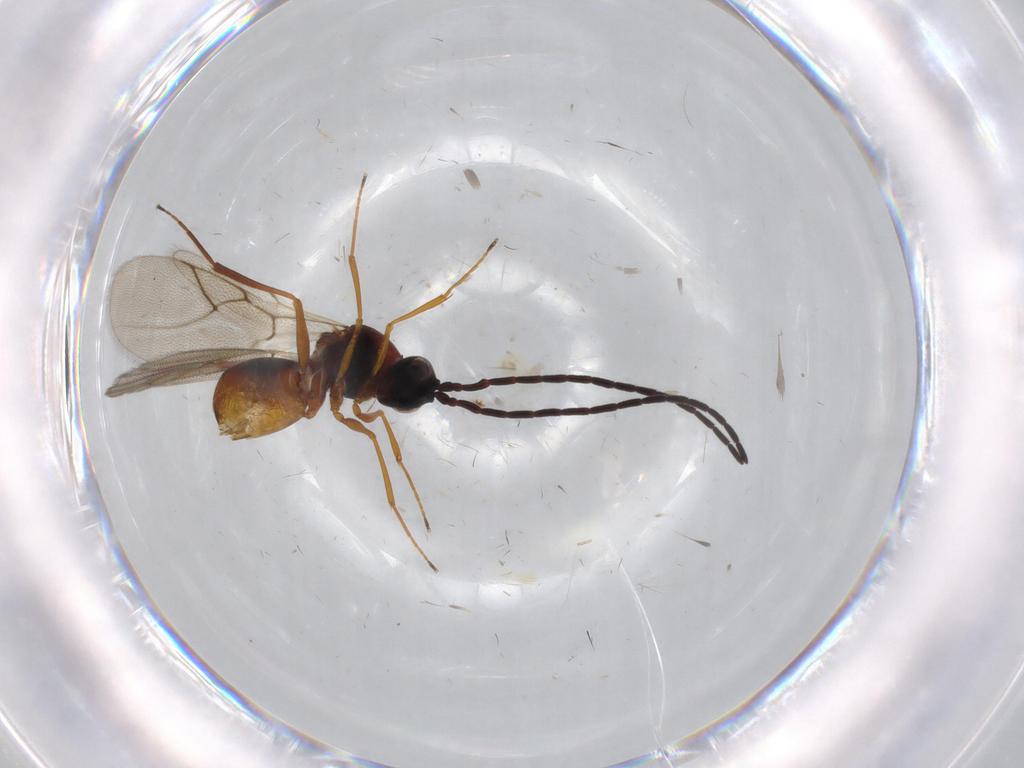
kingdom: Animalia
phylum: Arthropoda
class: Insecta
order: Hymenoptera
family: Figitidae
